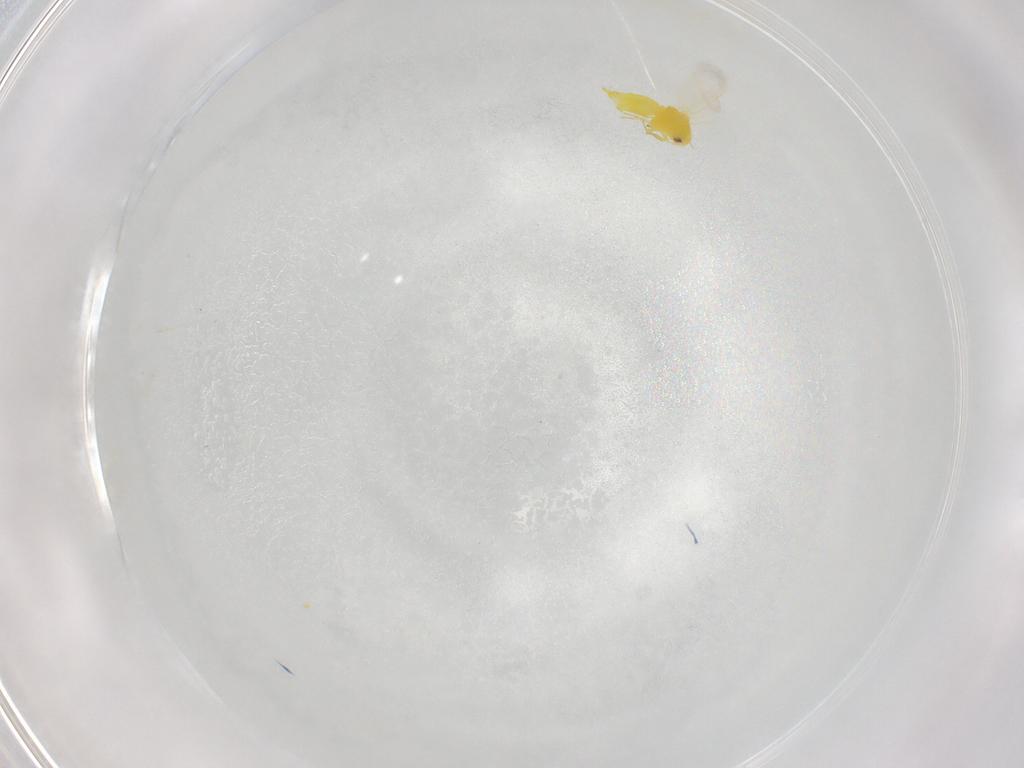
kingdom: Animalia
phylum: Arthropoda
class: Insecta
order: Hemiptera
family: Aleyrodidae
